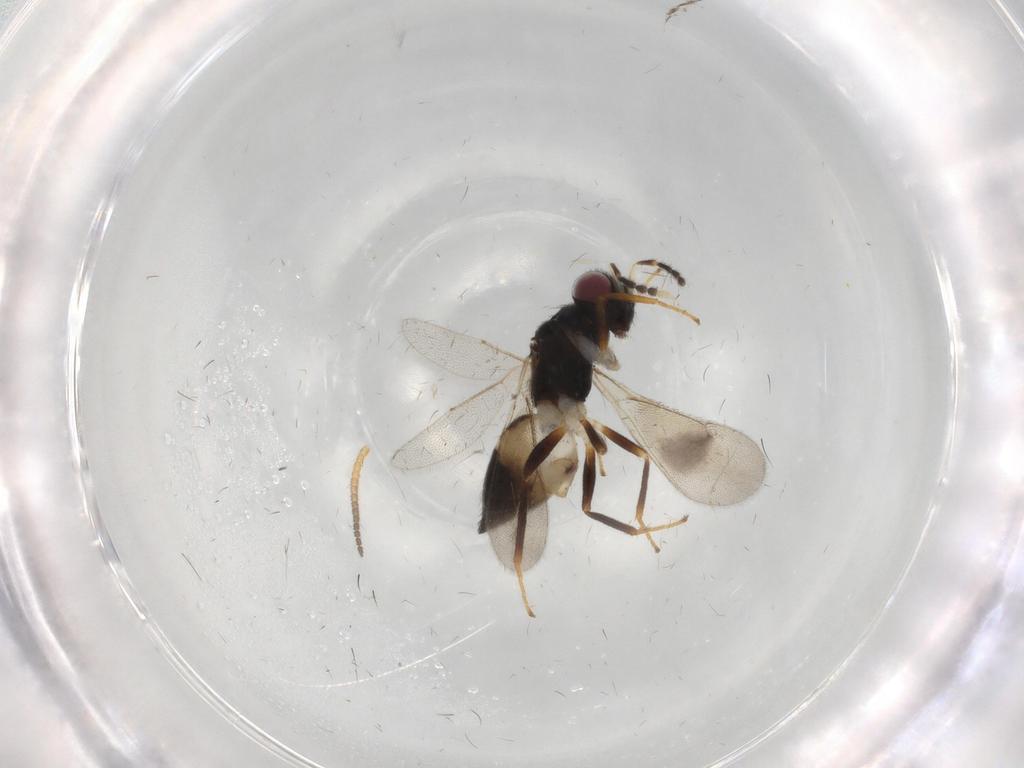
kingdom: Animalia
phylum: Arthropoda
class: Insecta
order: Hymenoptera
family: Eulophidae
